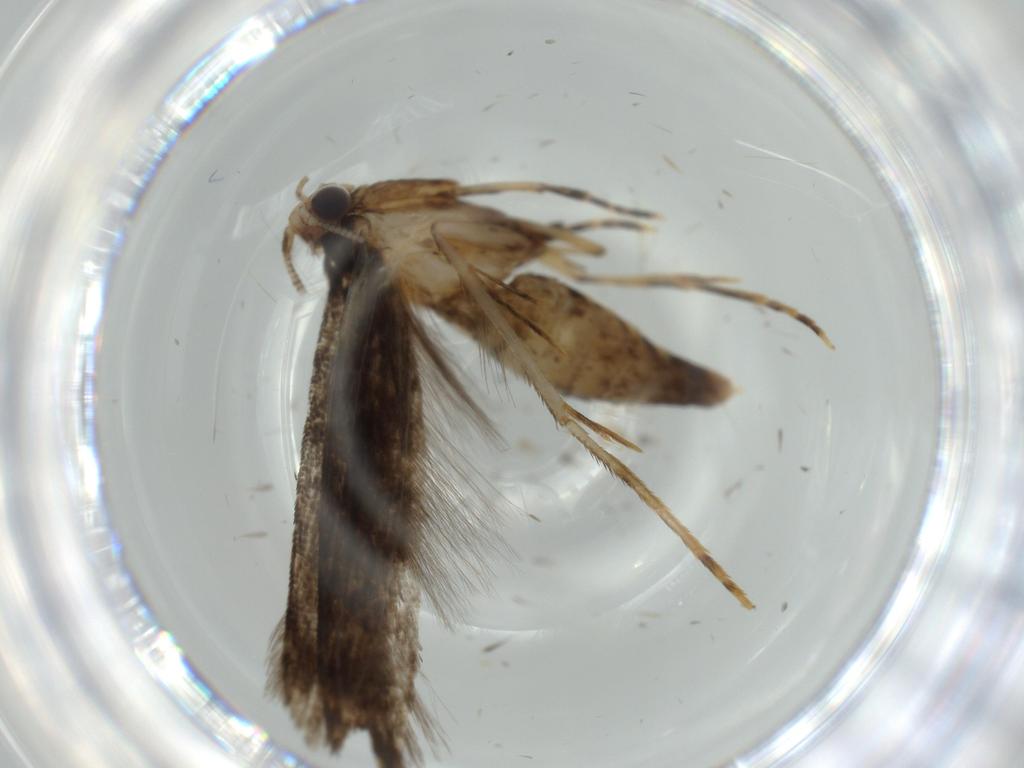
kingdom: Animalia
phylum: Arthropoda
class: Insecta
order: Lepidoptera
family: Tineidae
